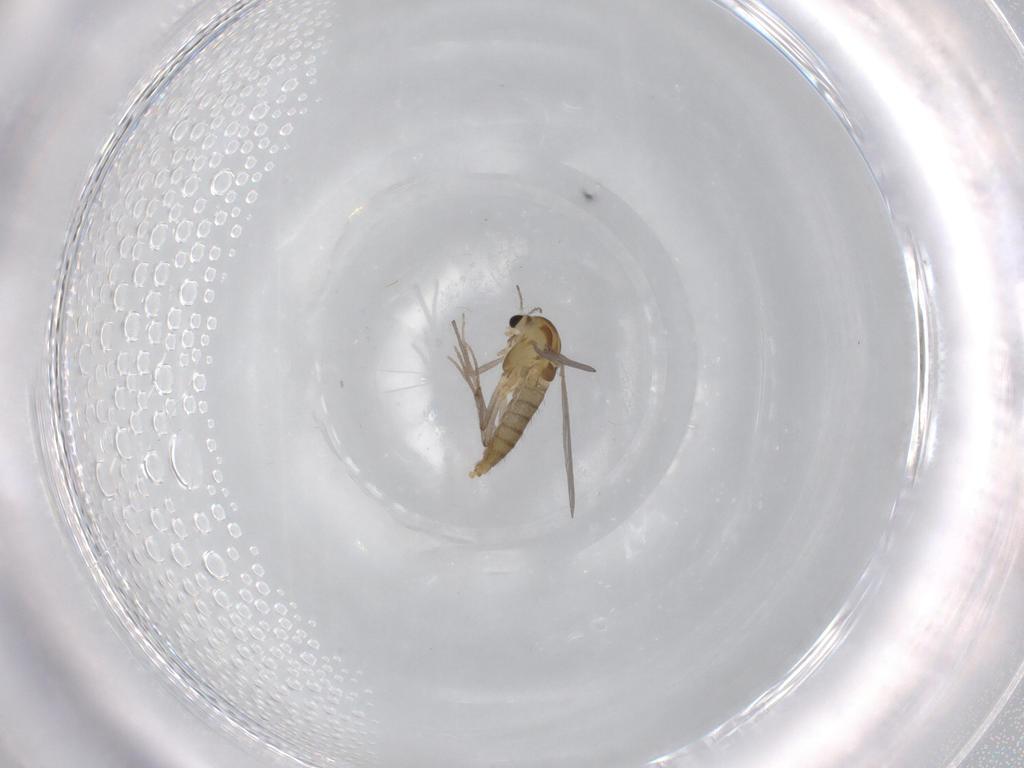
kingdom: Animalia
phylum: Arthropoda
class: Insecta
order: Diptera
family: Chironomidae
